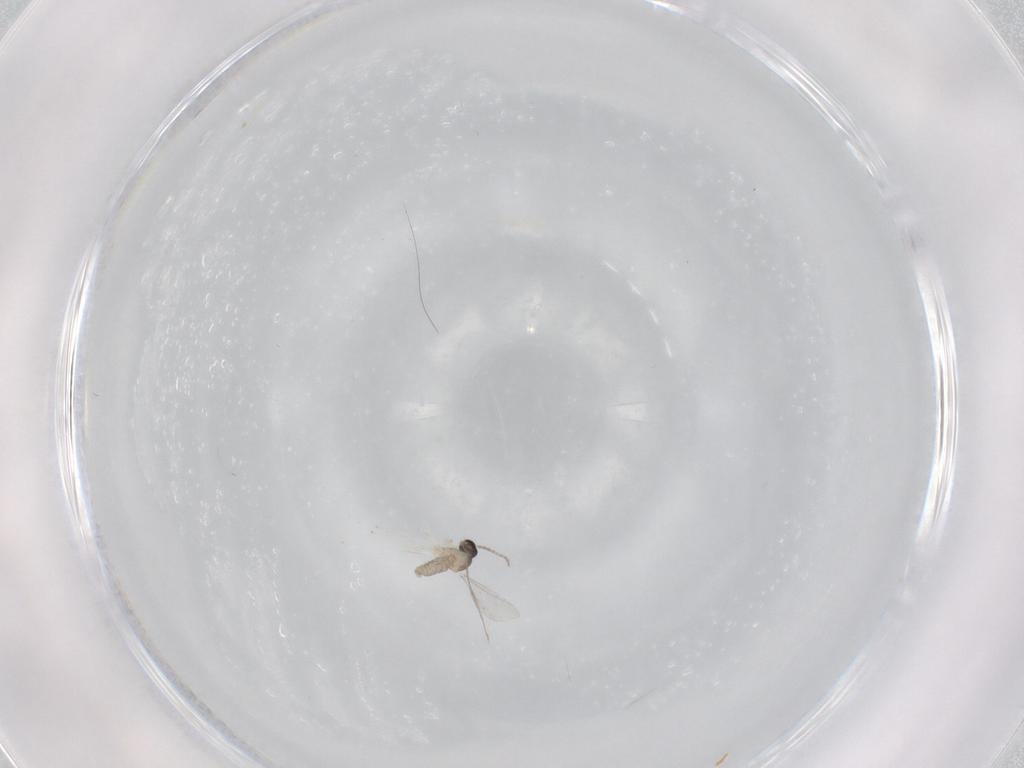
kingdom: Animalia
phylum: Arthropoda
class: Insecta
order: Diptera
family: Cecidomyiidae
